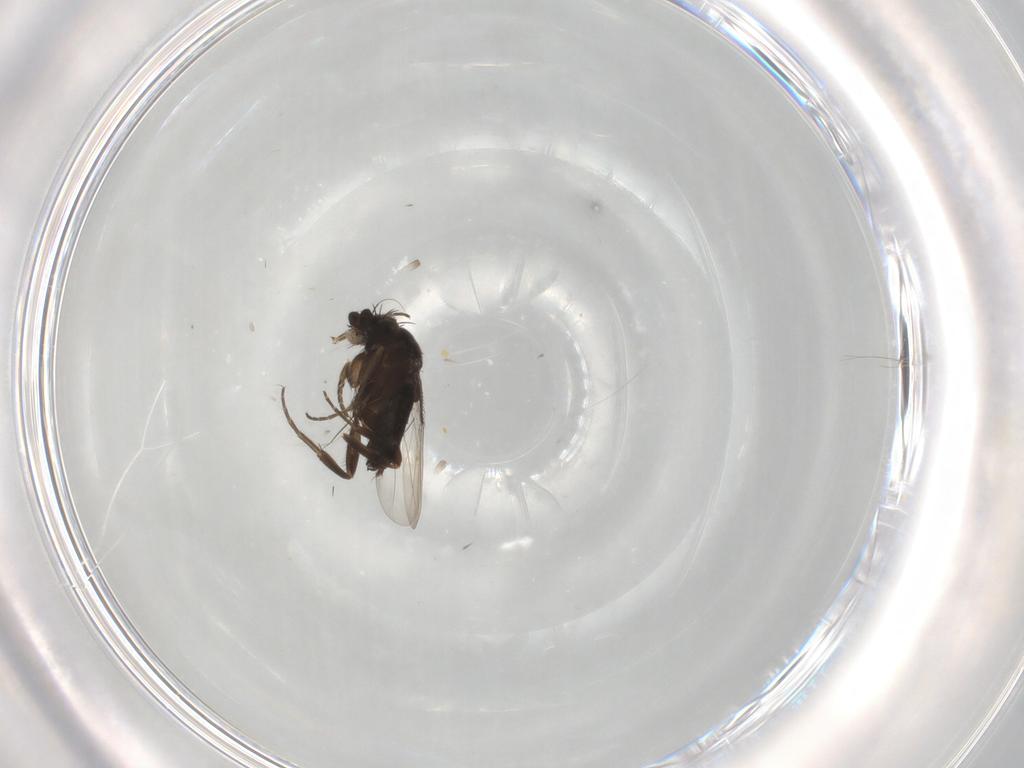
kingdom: Animalia
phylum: Arthropoda
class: Insecta
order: Diptera
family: Phoridae
